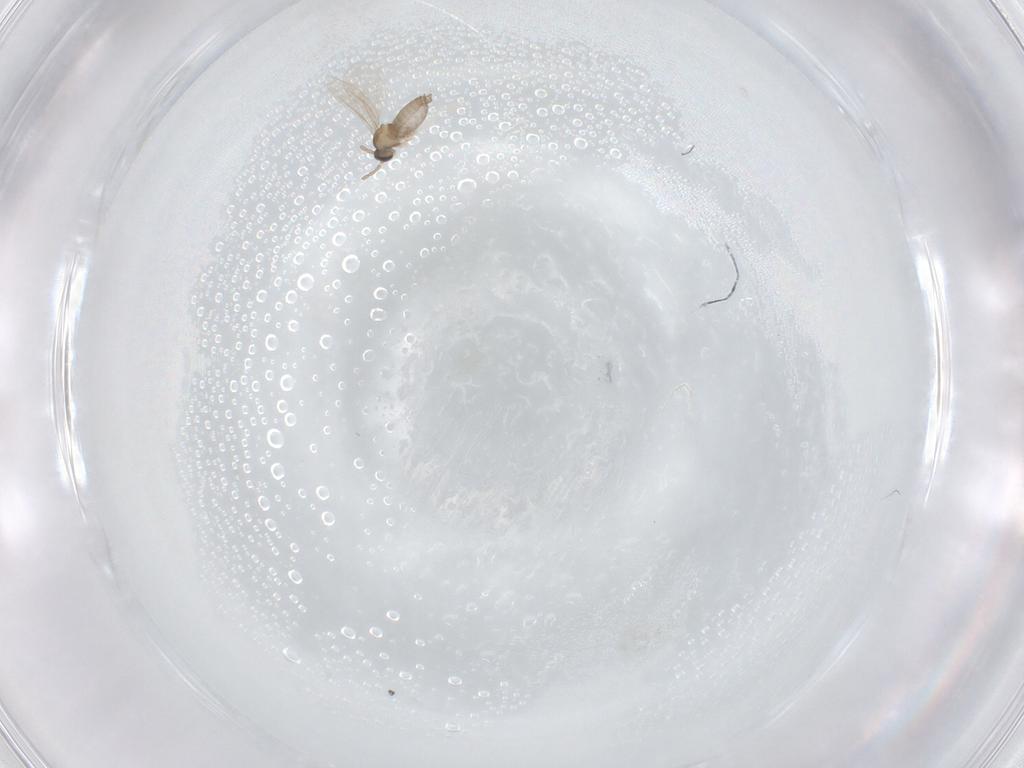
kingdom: Animalia
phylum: Arthropoda
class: Insecta
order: Diptera
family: Cecidomyiidae
